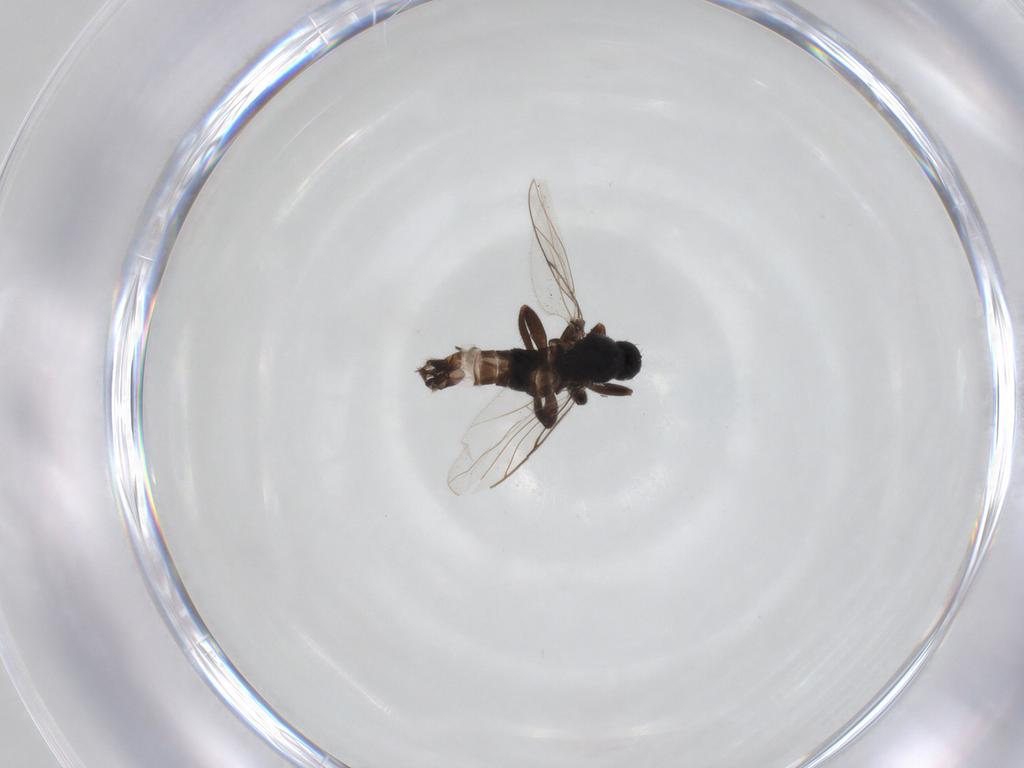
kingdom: Animalia
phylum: Arthropoda
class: Insecta
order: Diptera
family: Hybotidae
